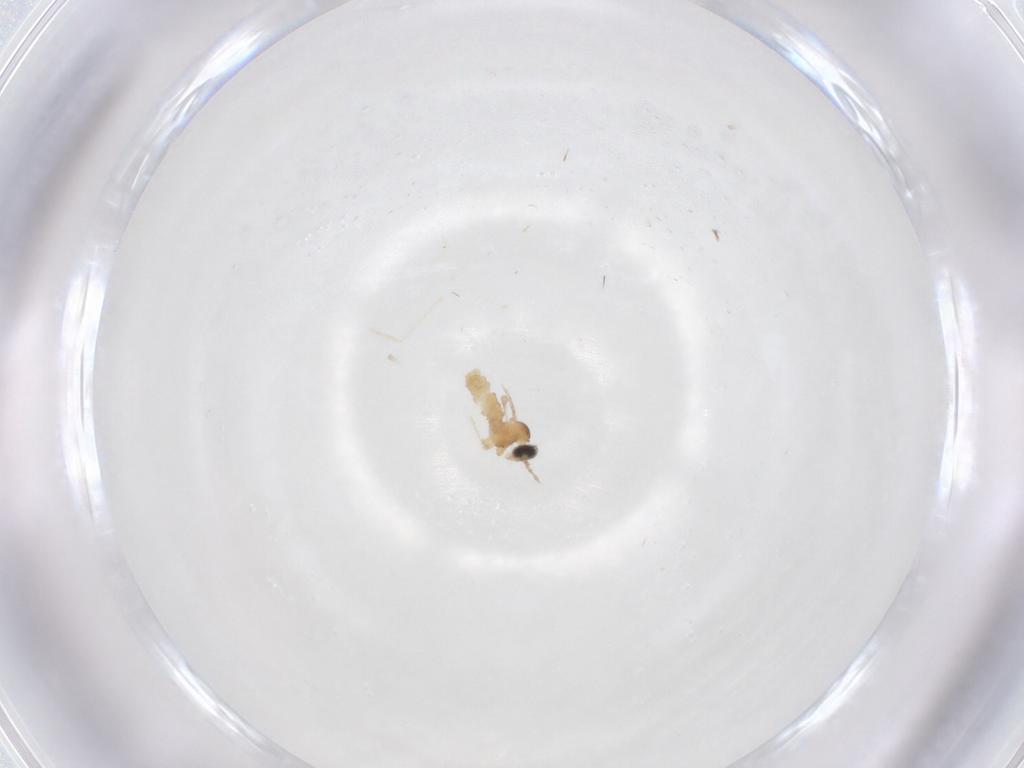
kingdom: Animalia
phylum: Arthropoda
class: Insecta
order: Diptera
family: Cecidomyiidae
